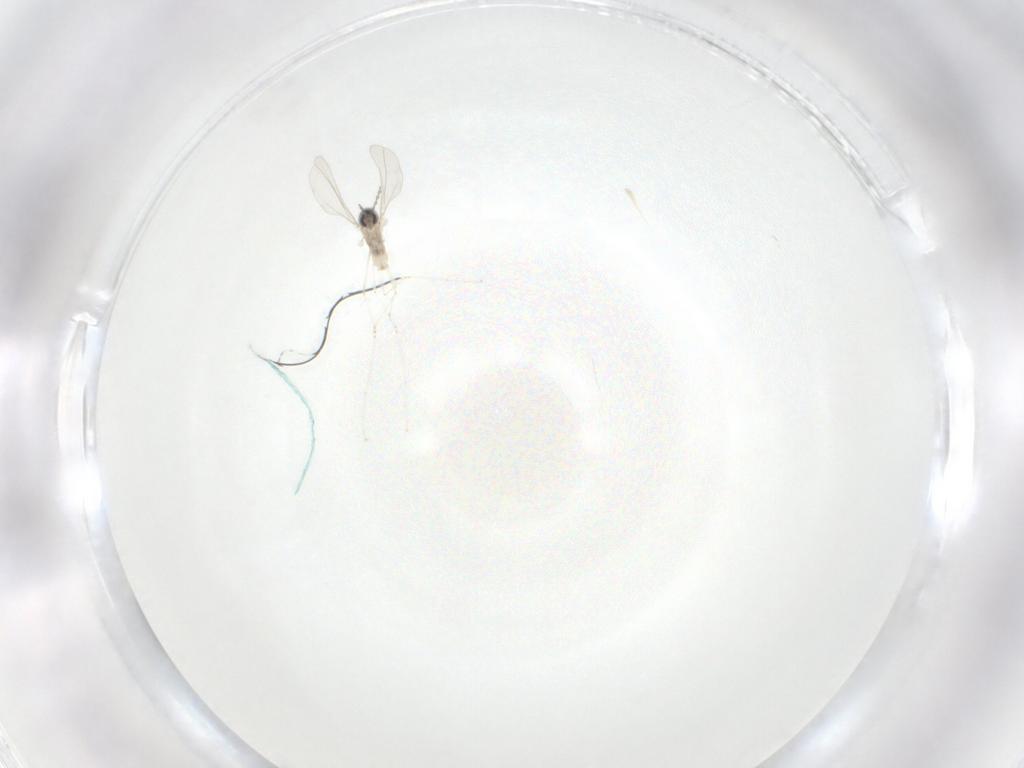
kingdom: Animalia
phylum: Arthropoda
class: Insecta
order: Diptera
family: Cecidomyiidae
